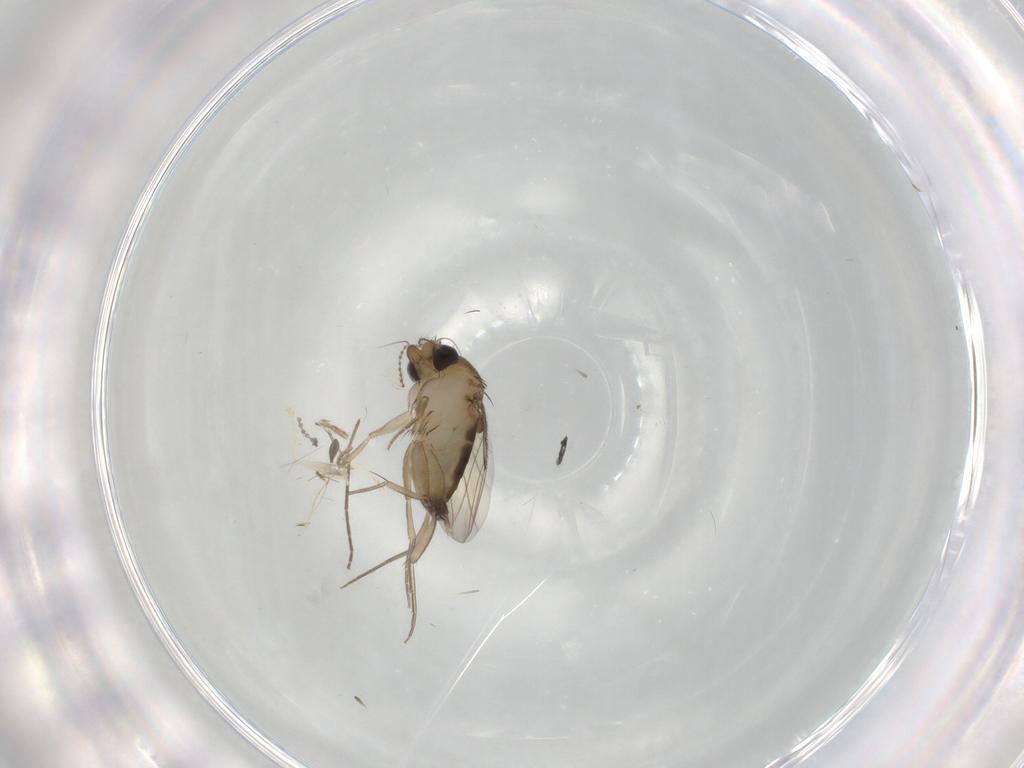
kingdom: Animalia
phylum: Arthropoda
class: Insecta
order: Diptera
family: Phoridae
